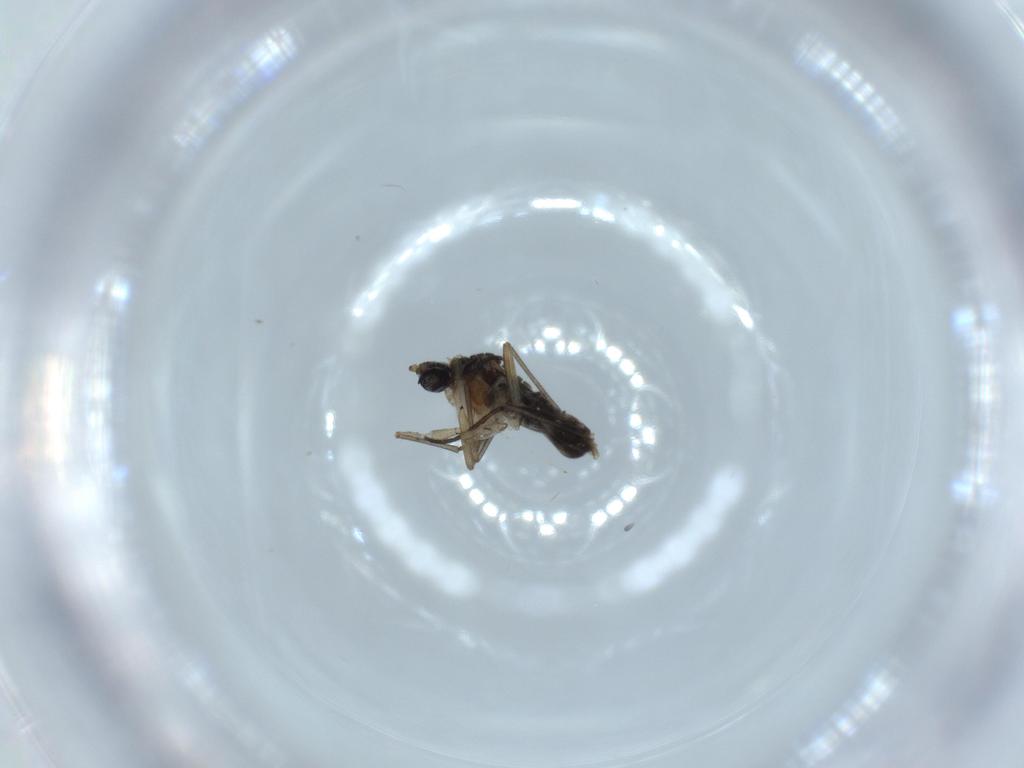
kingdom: Animalia
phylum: Arthropoda
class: Insecta
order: Diptera
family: Sciaridae
